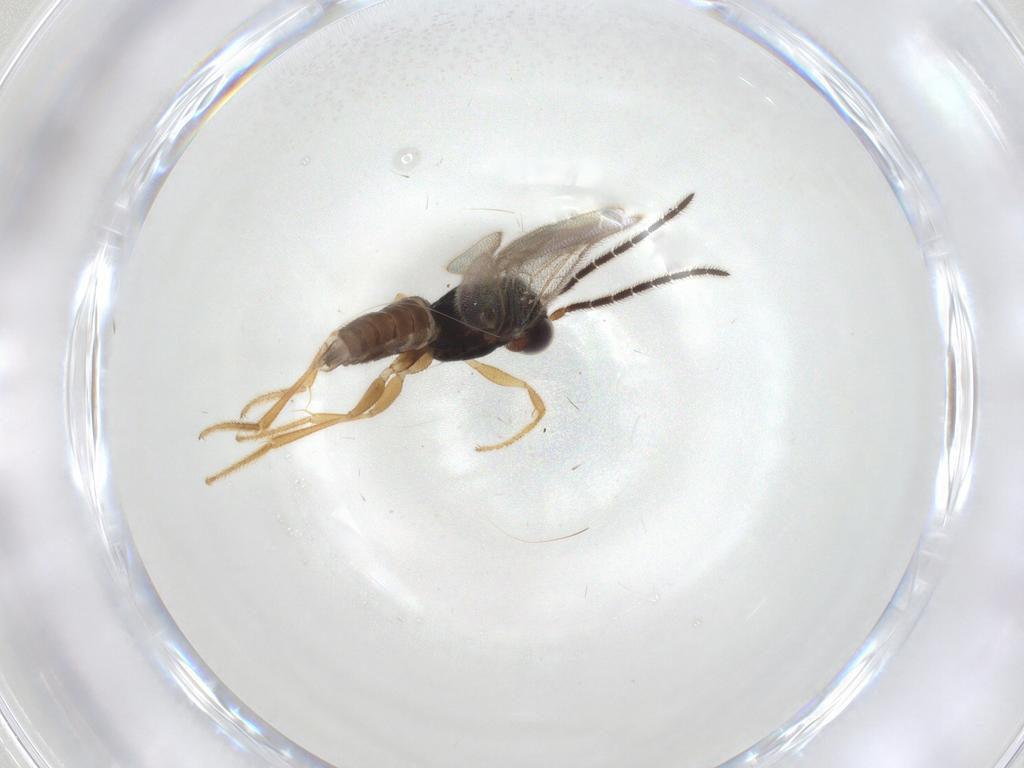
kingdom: Animalia
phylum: Arthropoda
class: Insecta
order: Hymenoptera
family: Dryinidae
